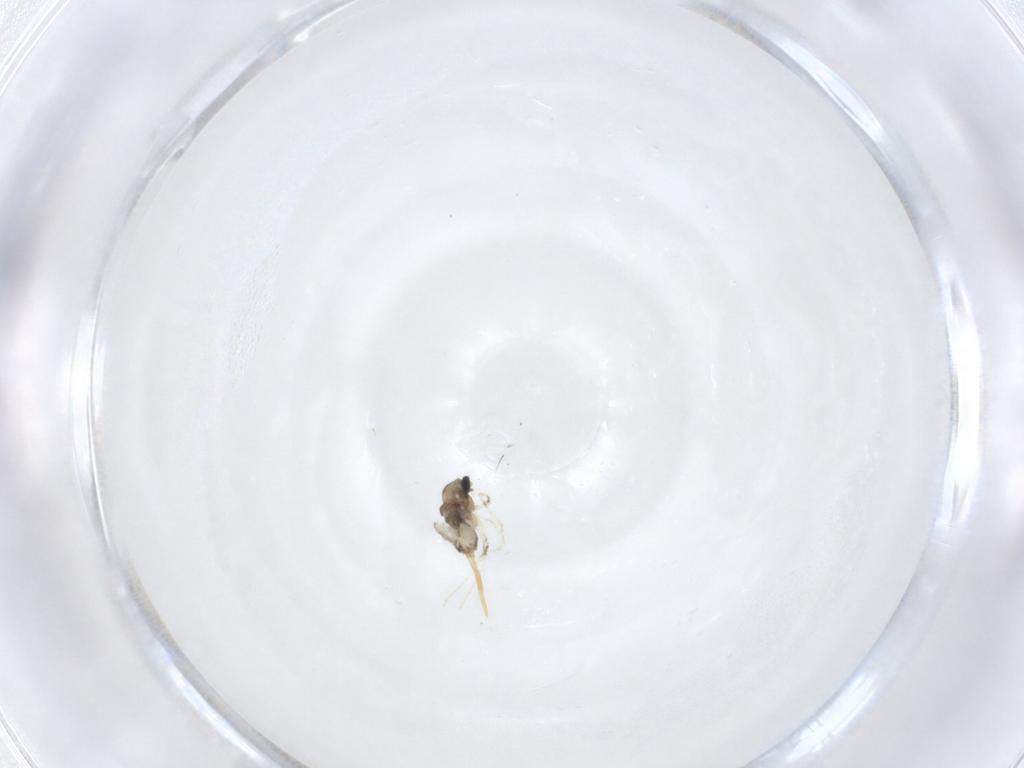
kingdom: Animalia
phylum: Arthropoda
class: Insecta
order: Diptera
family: Cecidomyiidae
